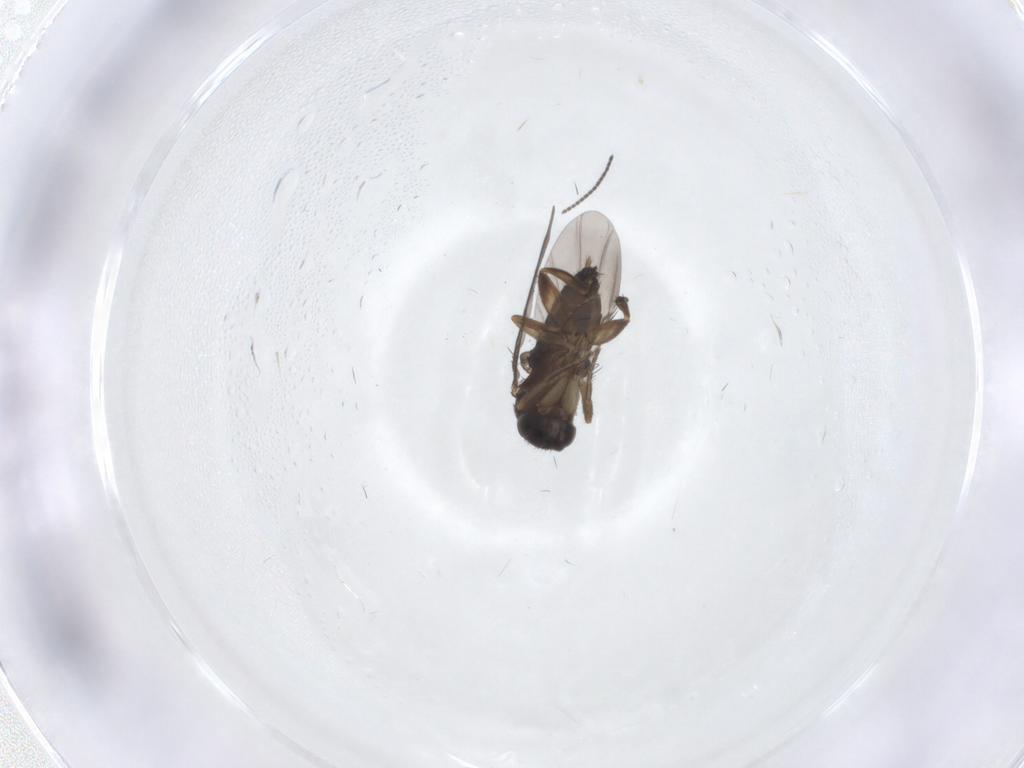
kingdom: Animalia
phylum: Arthropoda
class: Insecta
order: Diptera
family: Phoridae
